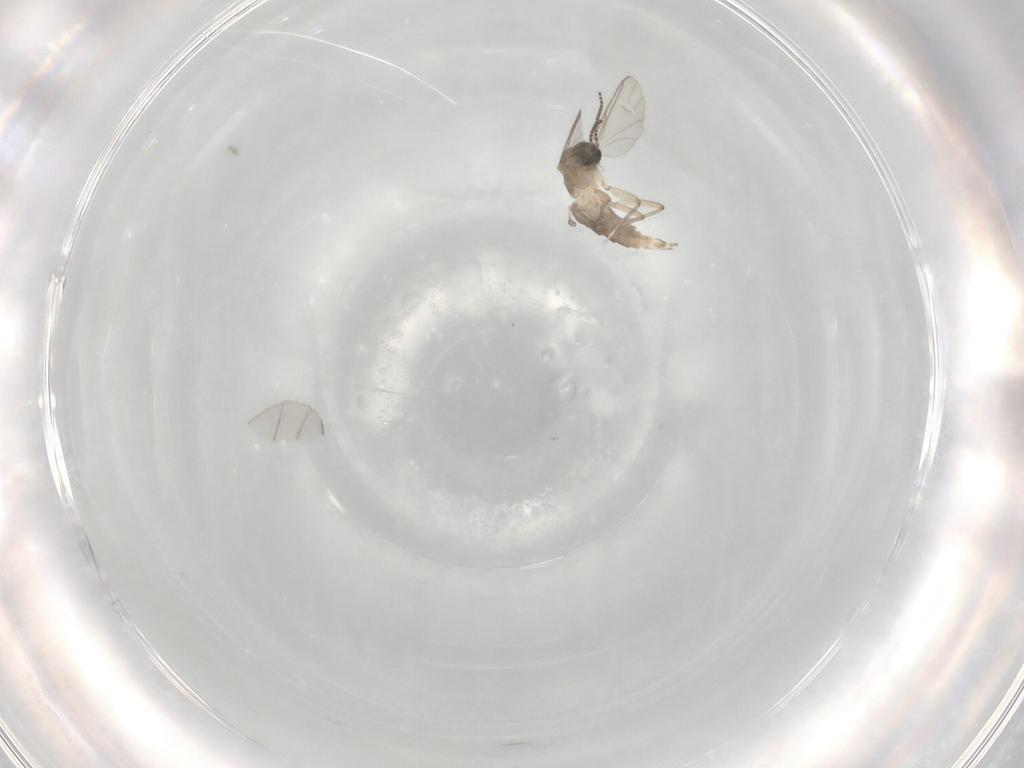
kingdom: Animalia
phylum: Arthropoda
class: Insecta
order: Diptera
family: Sciaridae
